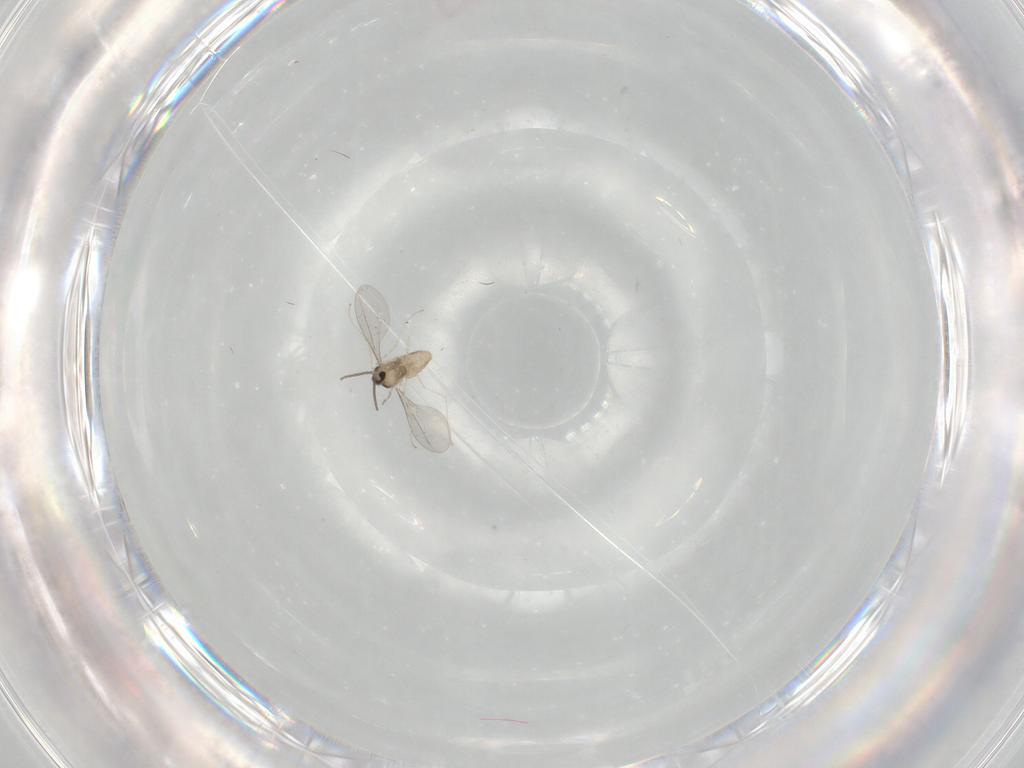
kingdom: Animalia
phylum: Arthropoda
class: Insecta
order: Diptera
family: Cecidomyiidae
